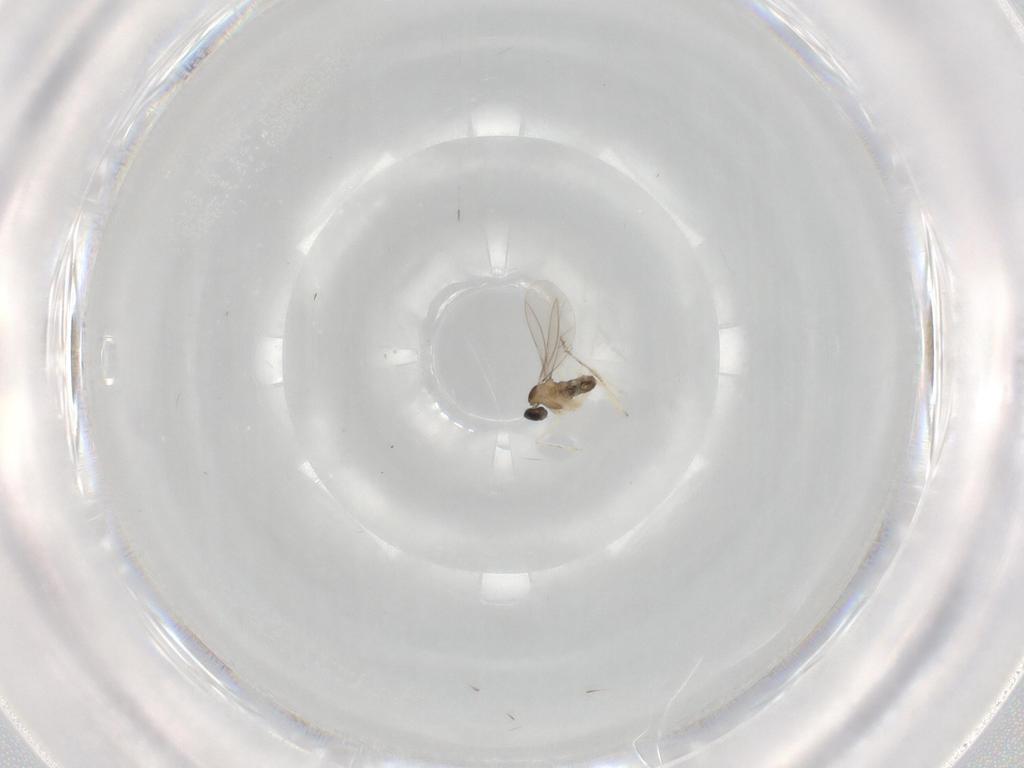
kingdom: Animalia
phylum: Arthropoda
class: Insecta
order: Diptera
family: Cecidomyiidae
